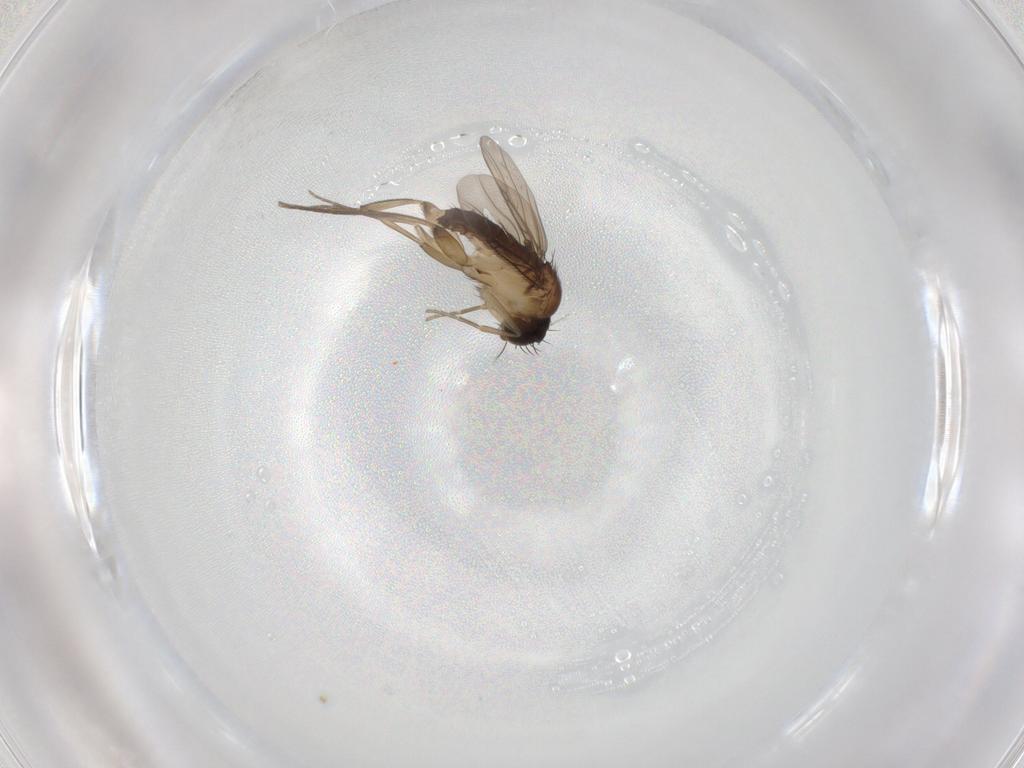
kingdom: Animalia
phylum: Arthropoda
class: Insecta
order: Diptera
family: Phoridae
